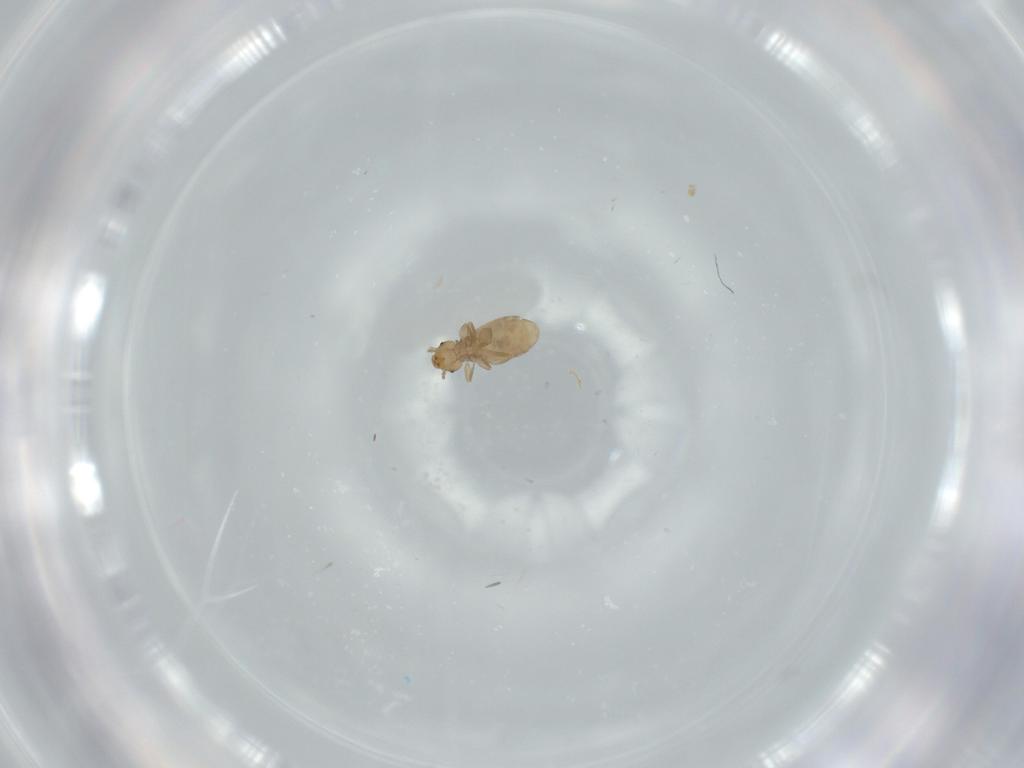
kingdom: Animalia
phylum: Arthropoda
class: Insecta
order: Psocodea
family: Liposcelididae
